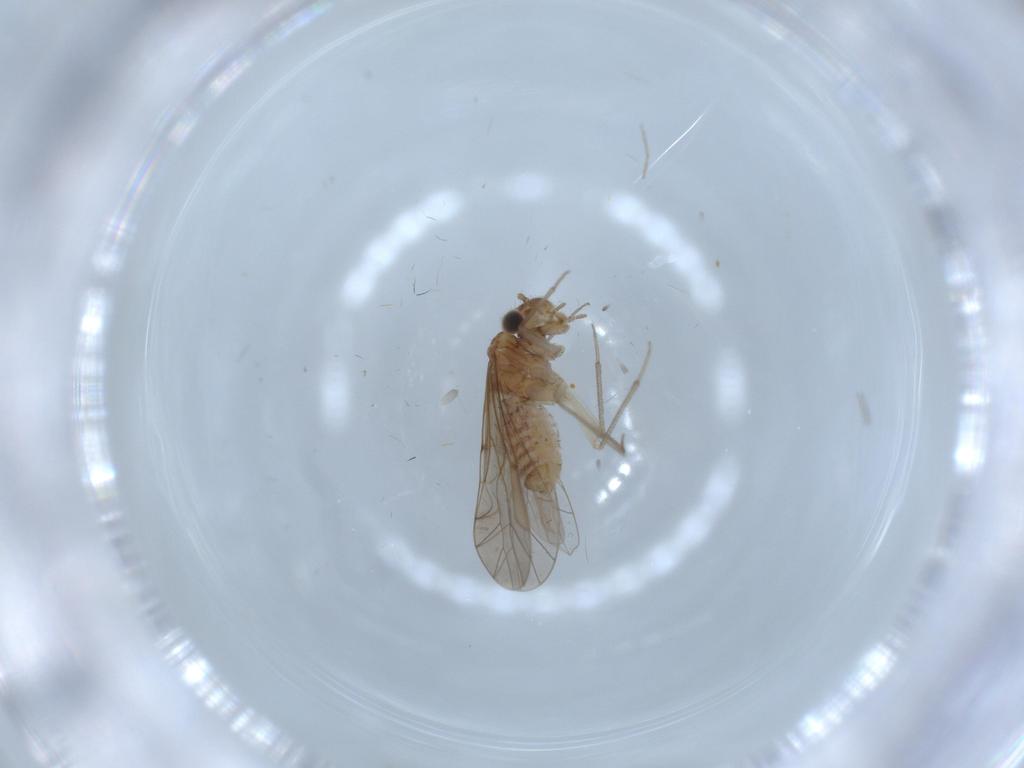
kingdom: Animalia
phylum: Arthropoda
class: Insecta
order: Psocodea
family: Lachesillidae
